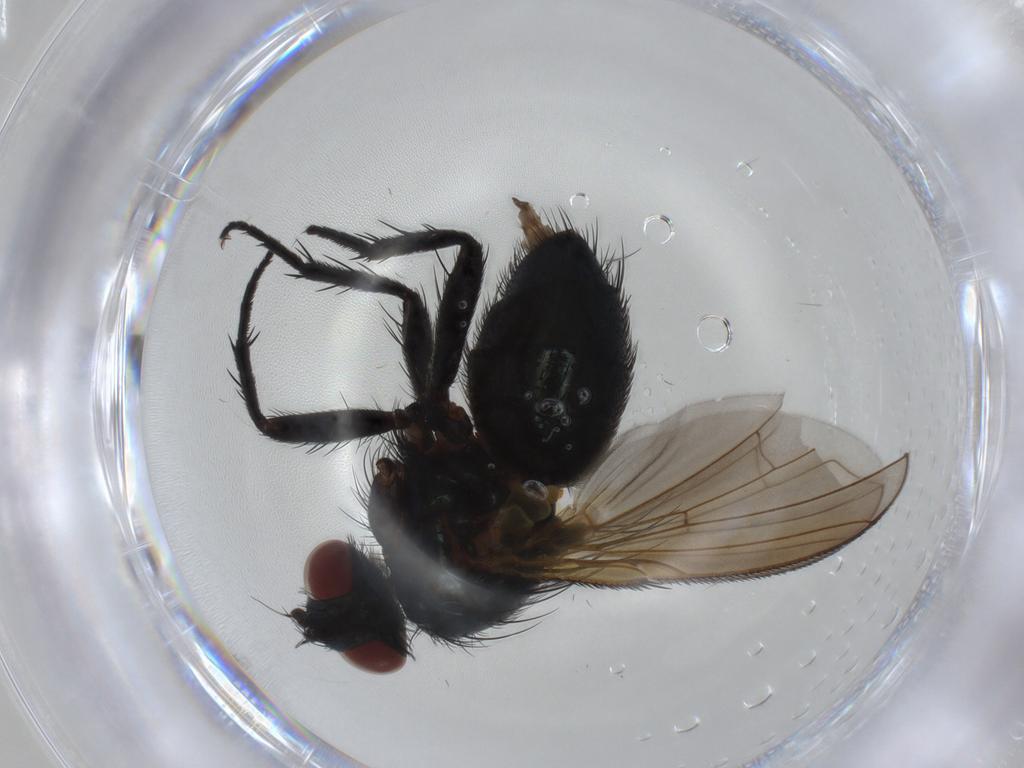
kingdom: Animalia
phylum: Arthropoda
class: Insecta
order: Diptera
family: Calliphoridae
